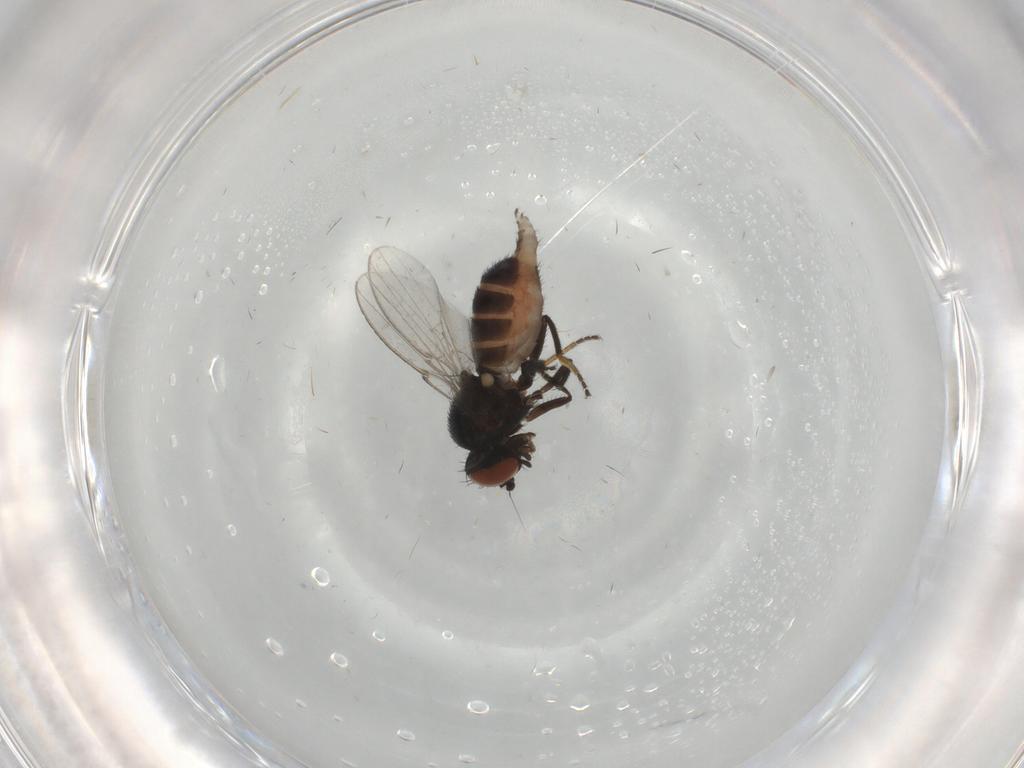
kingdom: Animalia
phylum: Arthropoda
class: Insecta
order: Diptera
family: Milichiidae
